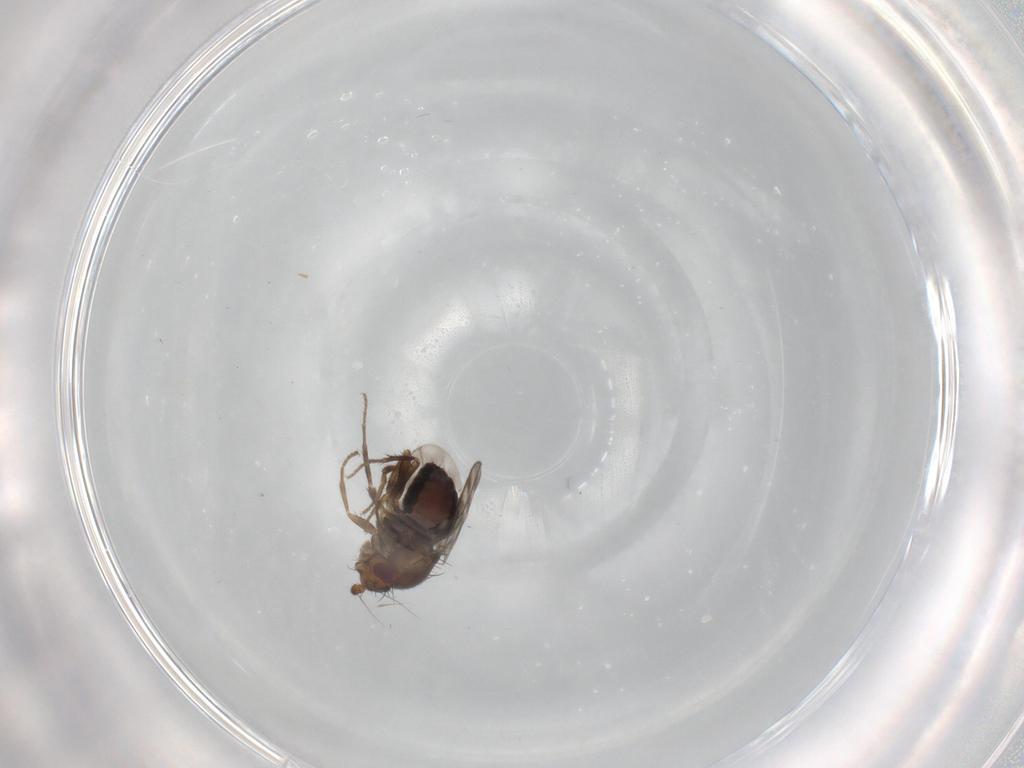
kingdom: Animalia
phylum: Arthropoda
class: Insecta
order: Diptera
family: Sphaeroceridae
